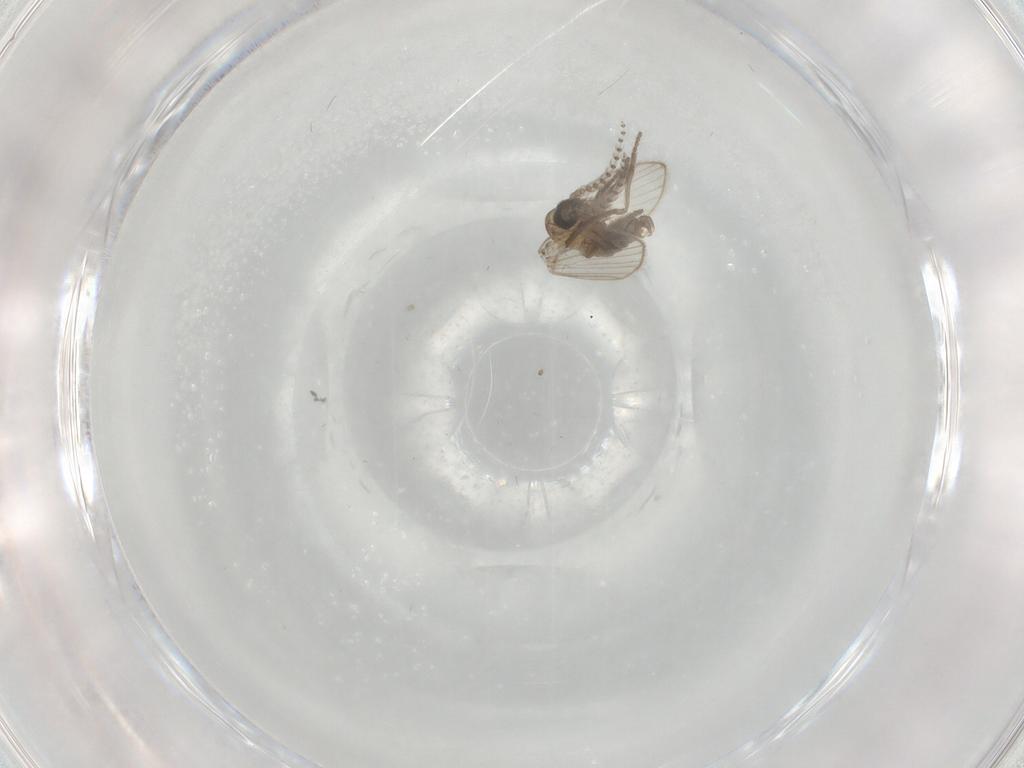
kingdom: Animalia
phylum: Arthropoda
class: Insecta
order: Diptera
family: Psychodidae
